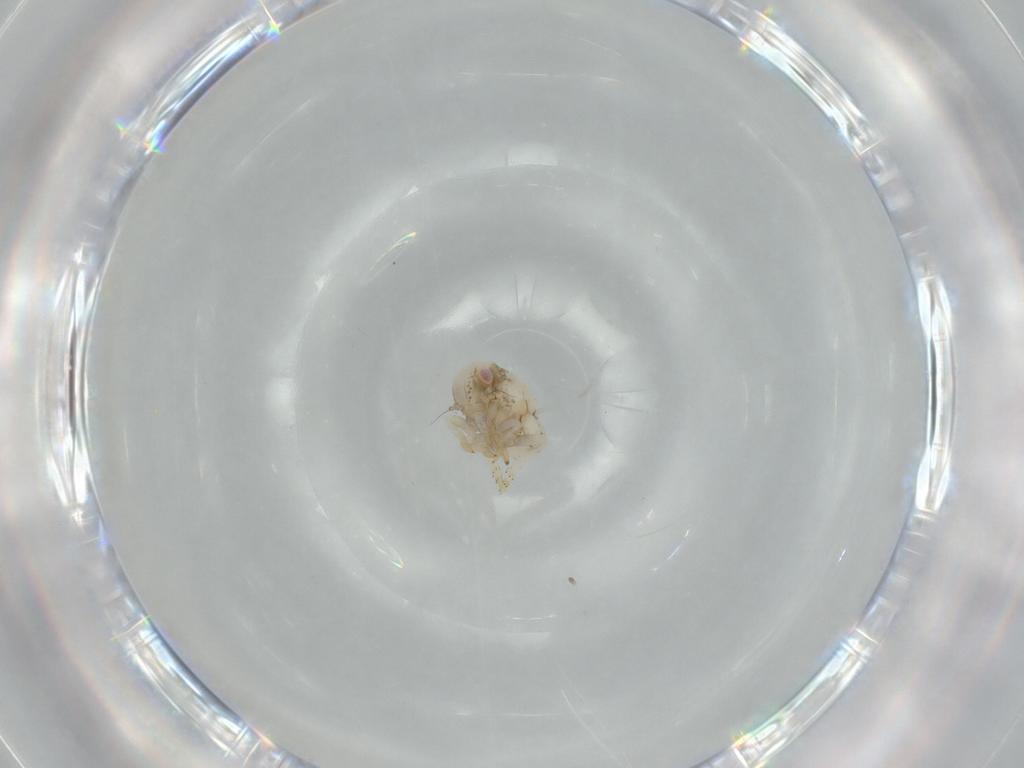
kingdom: Animalia
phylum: Arthropoda
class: Insecta
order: Hemiptera
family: Acanaloniidae
